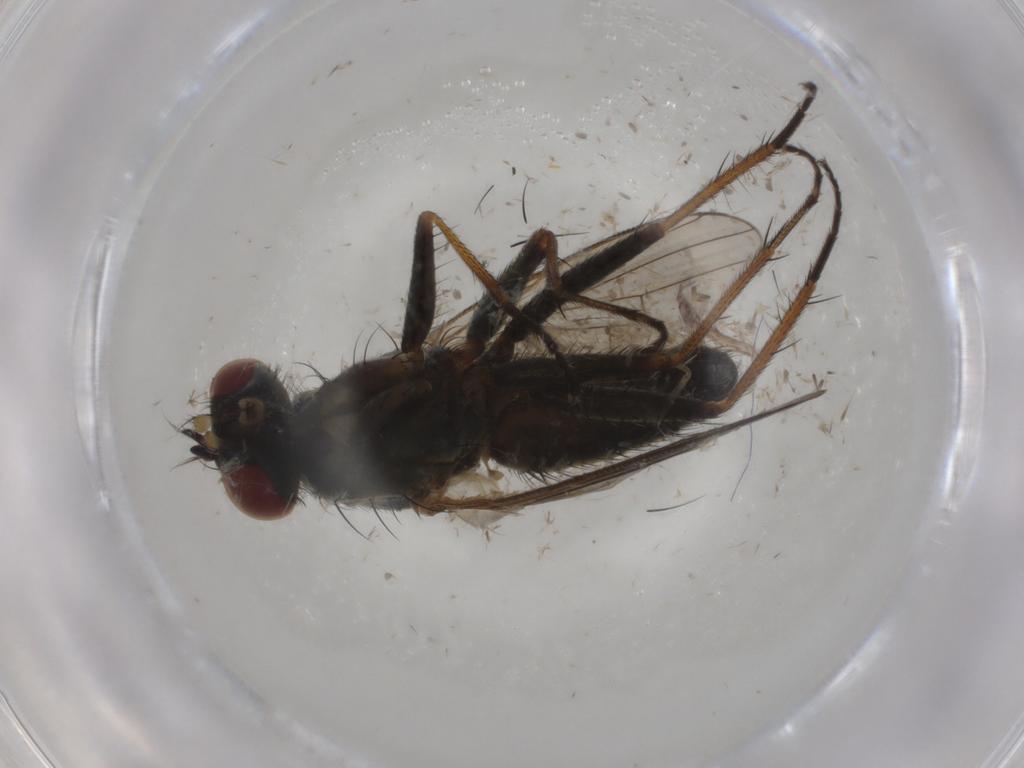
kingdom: Animalia
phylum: Arthropoda
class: Insecta
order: Diptera
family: Muscidae
